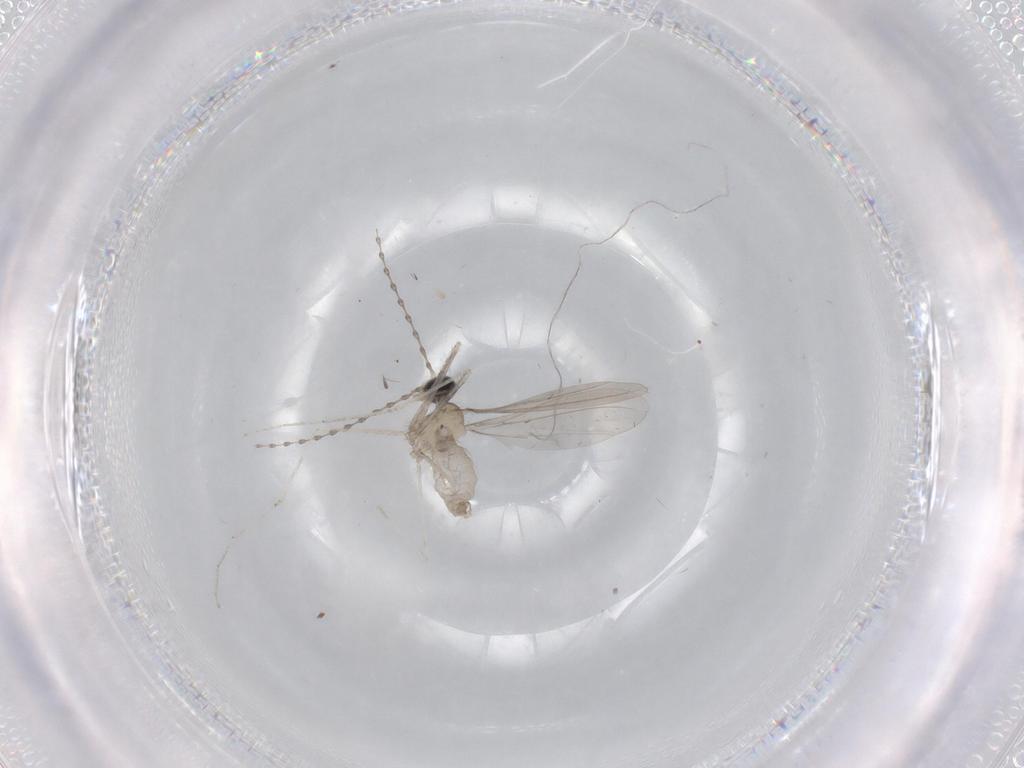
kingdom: Animalia
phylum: Arthropoda
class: Insecta
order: Diptera
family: Cecidomyiidae
